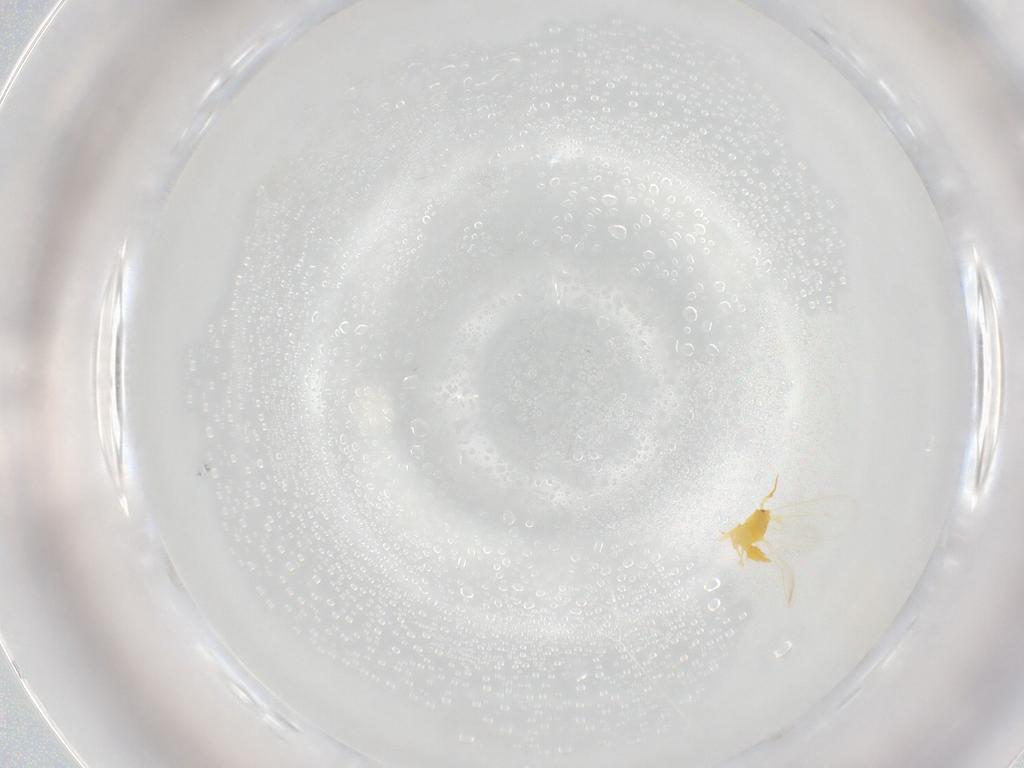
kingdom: Animalia
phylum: Arthropoda
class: Insecta
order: Hemiptera
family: Aleyrodidae
